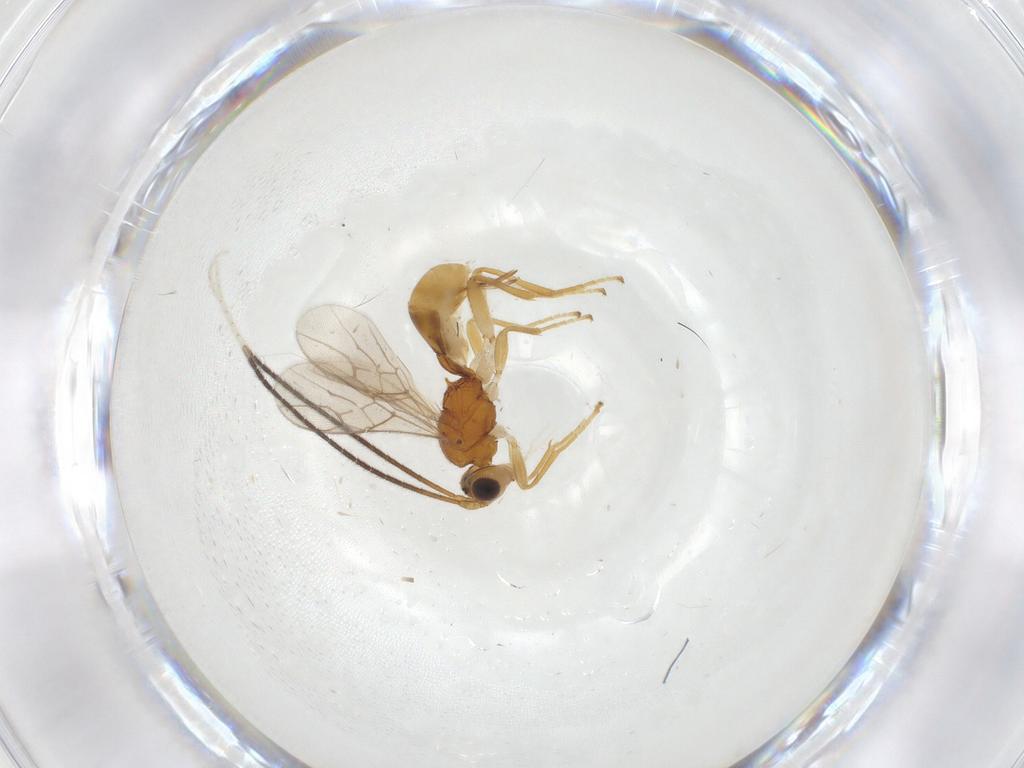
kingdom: Animalia
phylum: Arthropoda
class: Insecta
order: Hymenoptera
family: Braconidae
